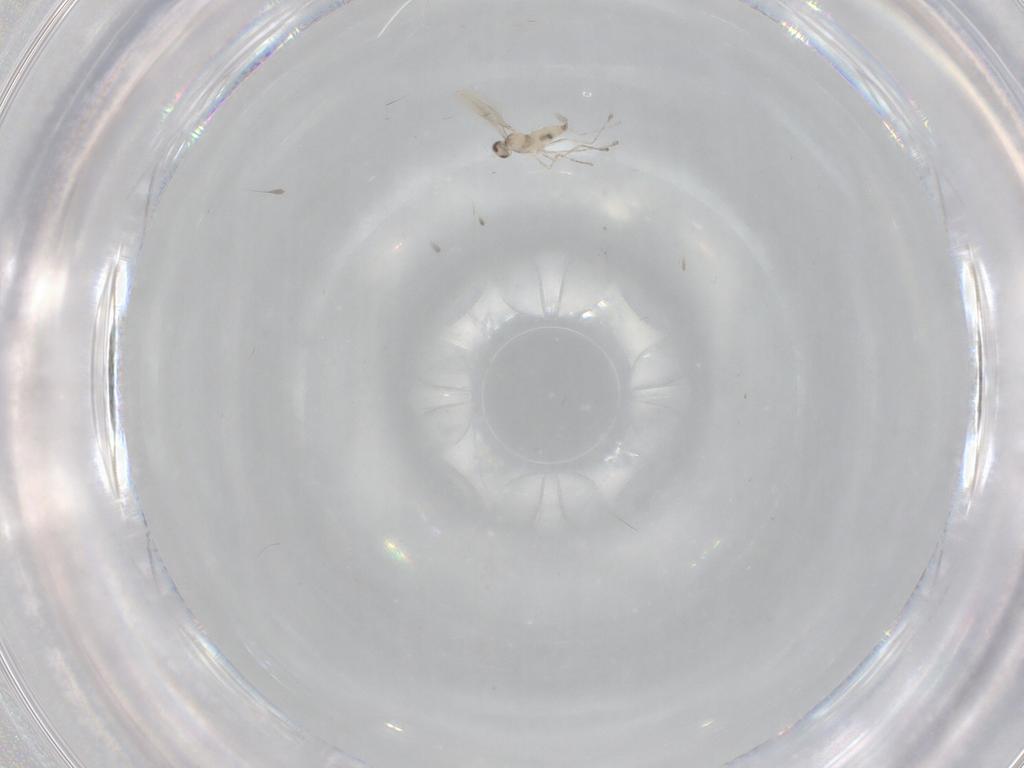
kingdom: Animalia
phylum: Arthropoda
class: Insecta
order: Diptera
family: Cecidomyiidae
